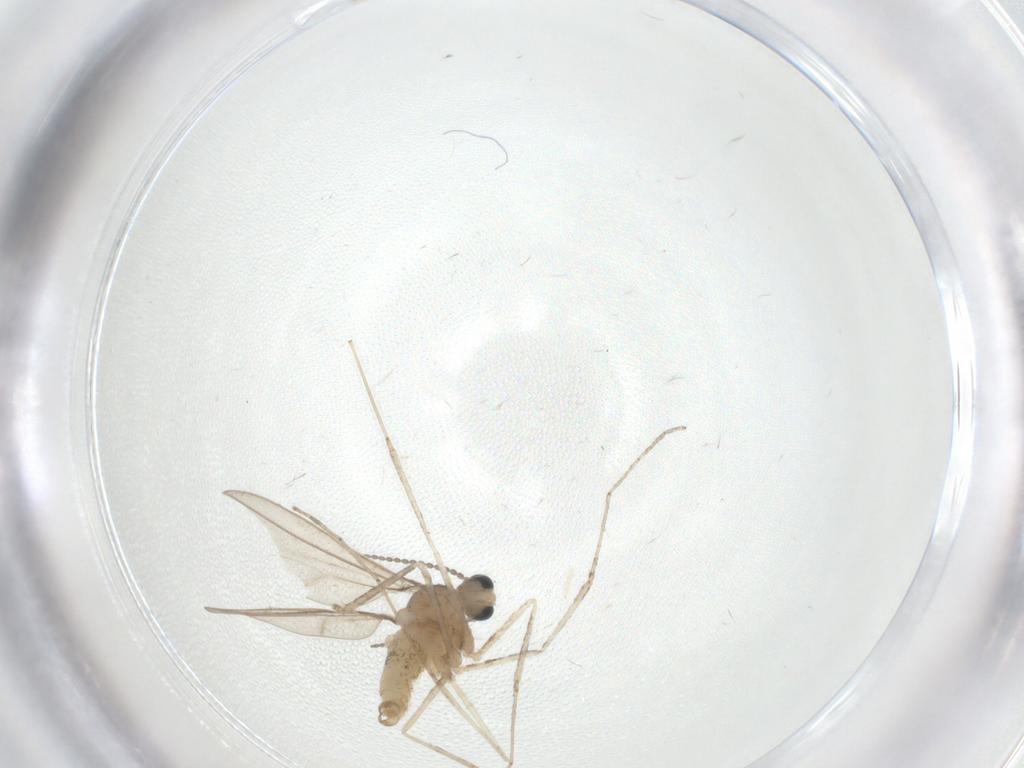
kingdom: Animalia
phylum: Arthropoda
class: Insecta
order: Diptera
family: Cecidomyiidae
